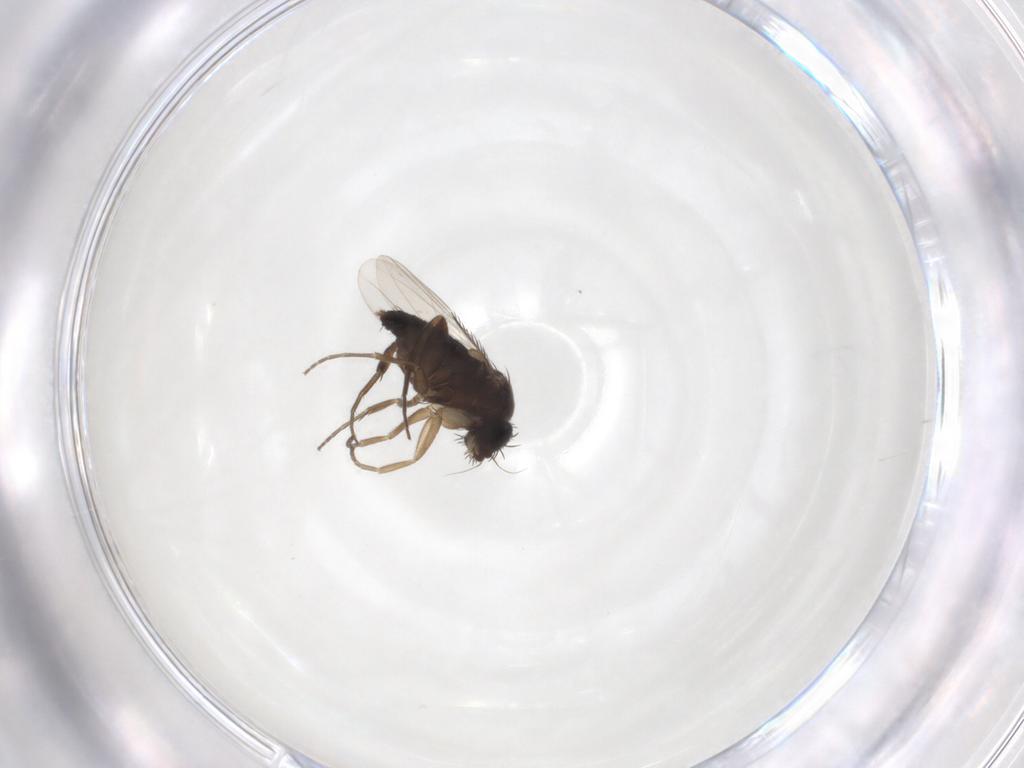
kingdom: Animalia
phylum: Arthropoda
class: Insecta
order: Diptera
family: Phoridae
